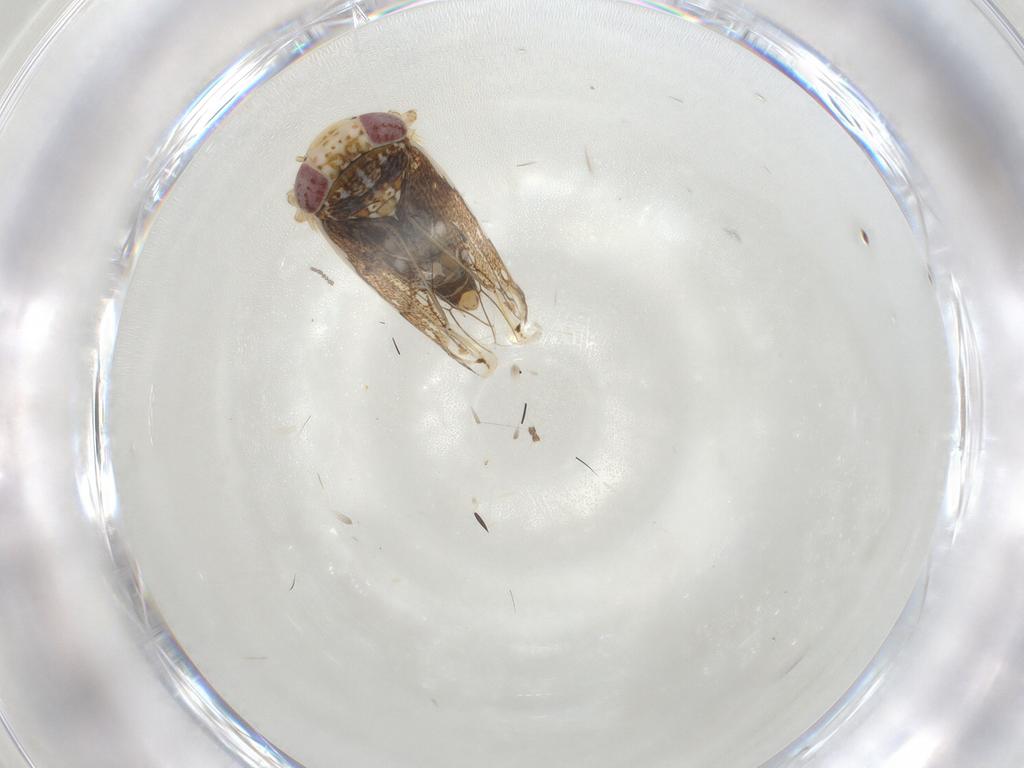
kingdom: Animalia
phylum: Arthropoda
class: Insecta
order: Hemiptera
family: Cicadellidae
